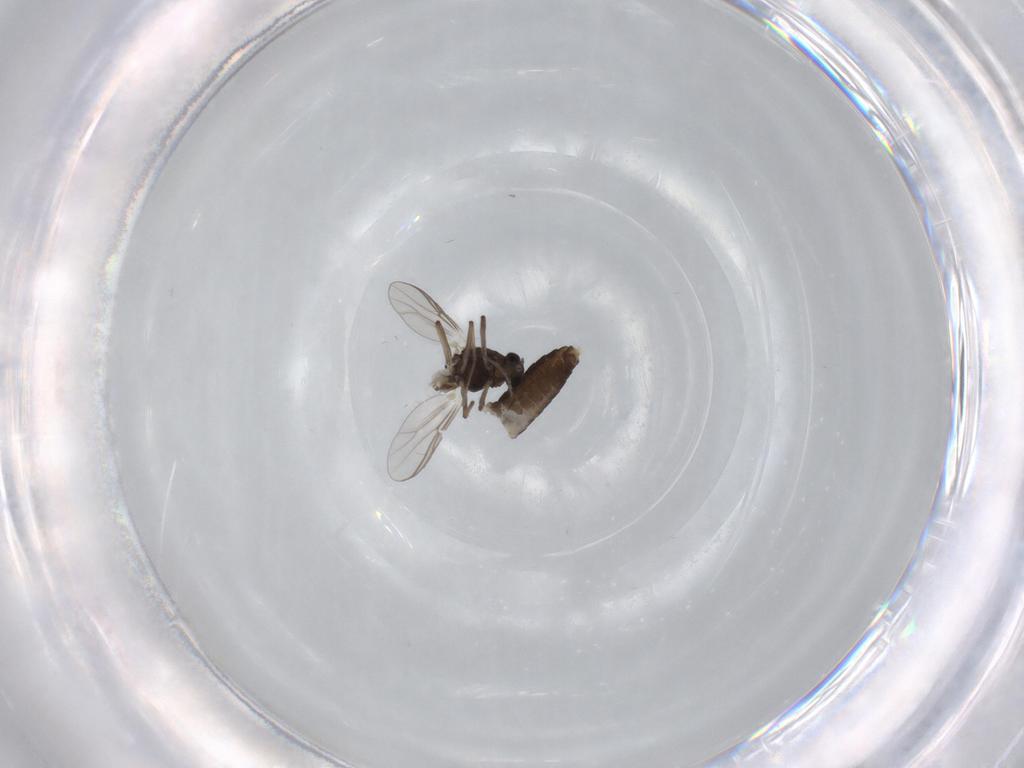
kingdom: Animalia
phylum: Arthropoda
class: Insecta
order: Diptera
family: Chironomidae
